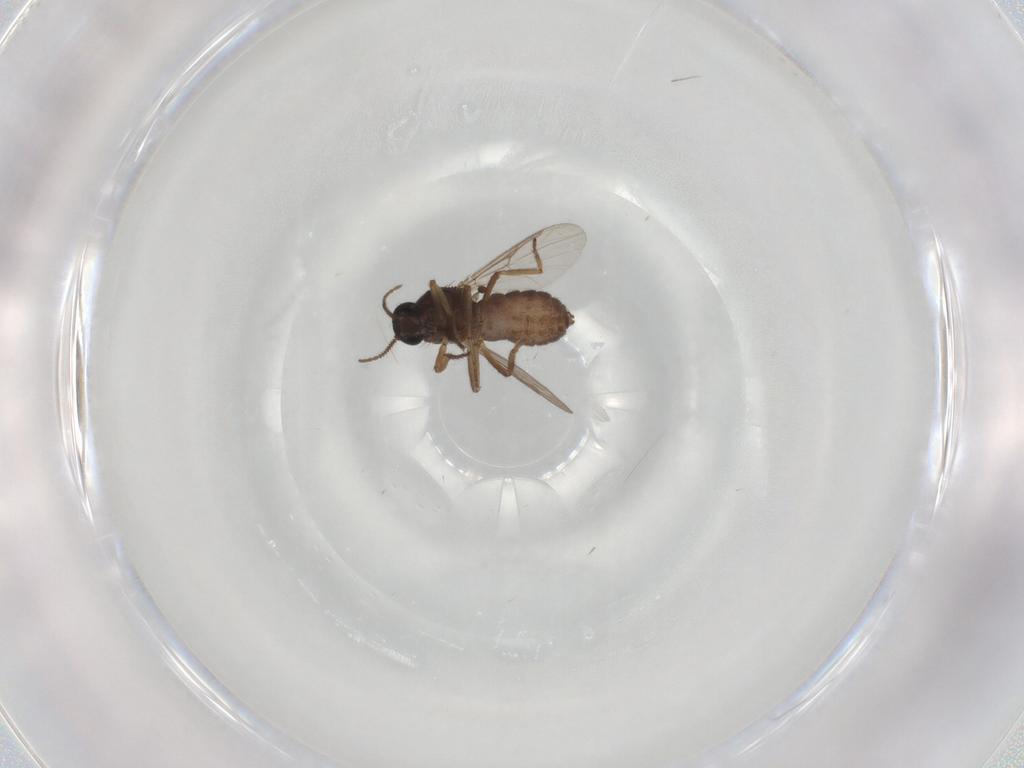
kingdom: Animalia
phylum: Arthropoda
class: Insecta
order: Diptera
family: Ceratopogonidae
